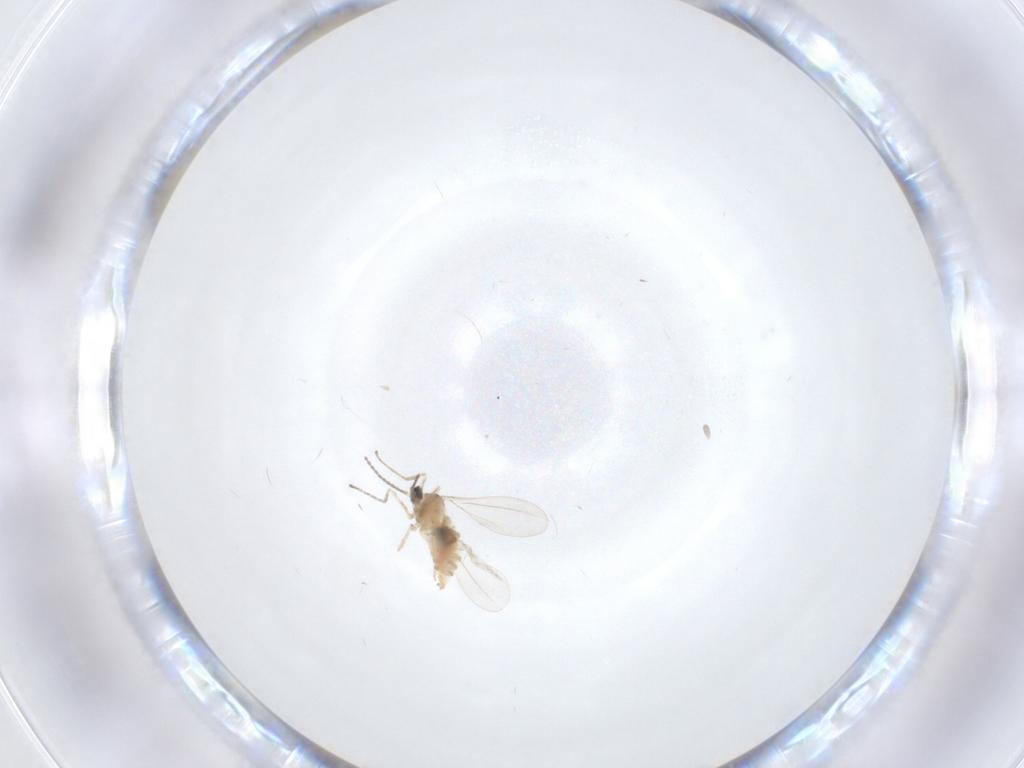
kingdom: Animalia
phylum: Arthropoda
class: Insecta
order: Diptera
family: Cecidomyiidae
